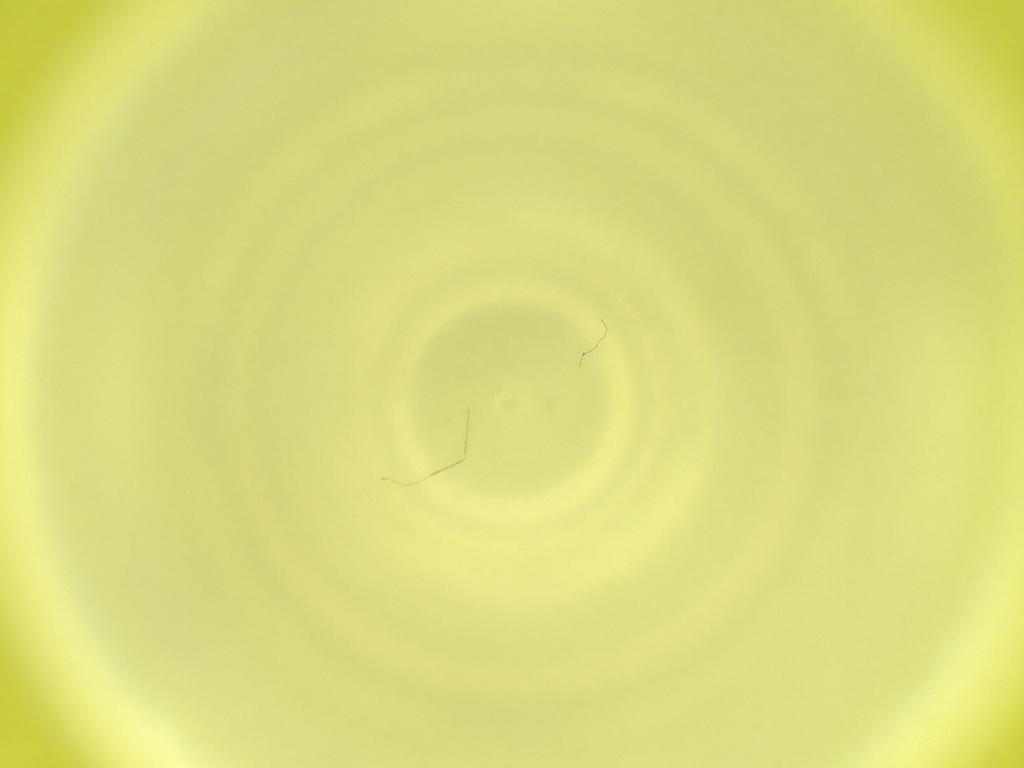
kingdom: Animalia
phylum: Arthropoda
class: Insecta
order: Diptera
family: Cecidomyiidae
